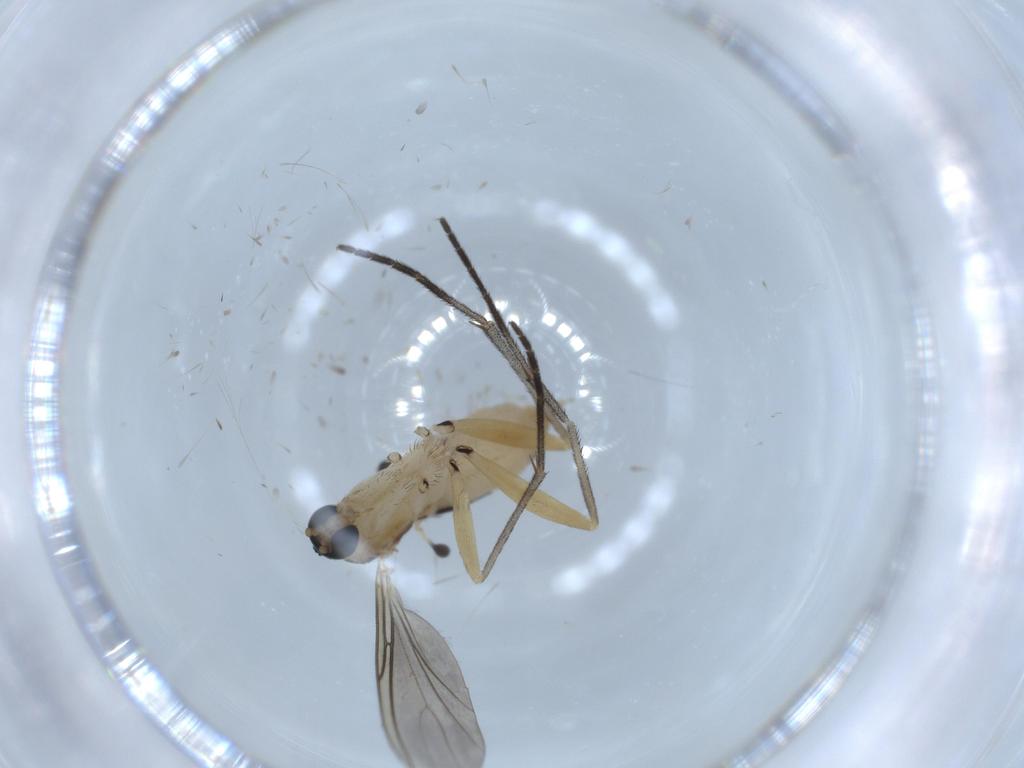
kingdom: Animalia
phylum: Arthropoda
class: Insecta
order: Diptera
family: Sciaridae
